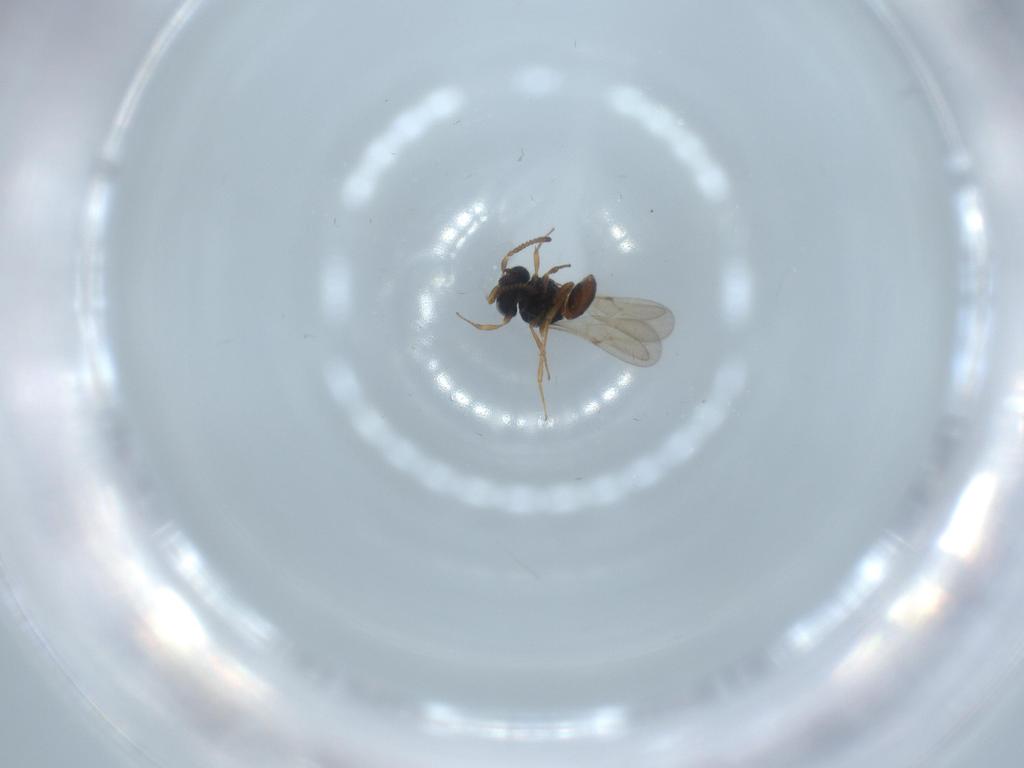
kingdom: Animalia
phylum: Arthropoda
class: Insecta
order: Hymenoptera
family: Scelionidae
